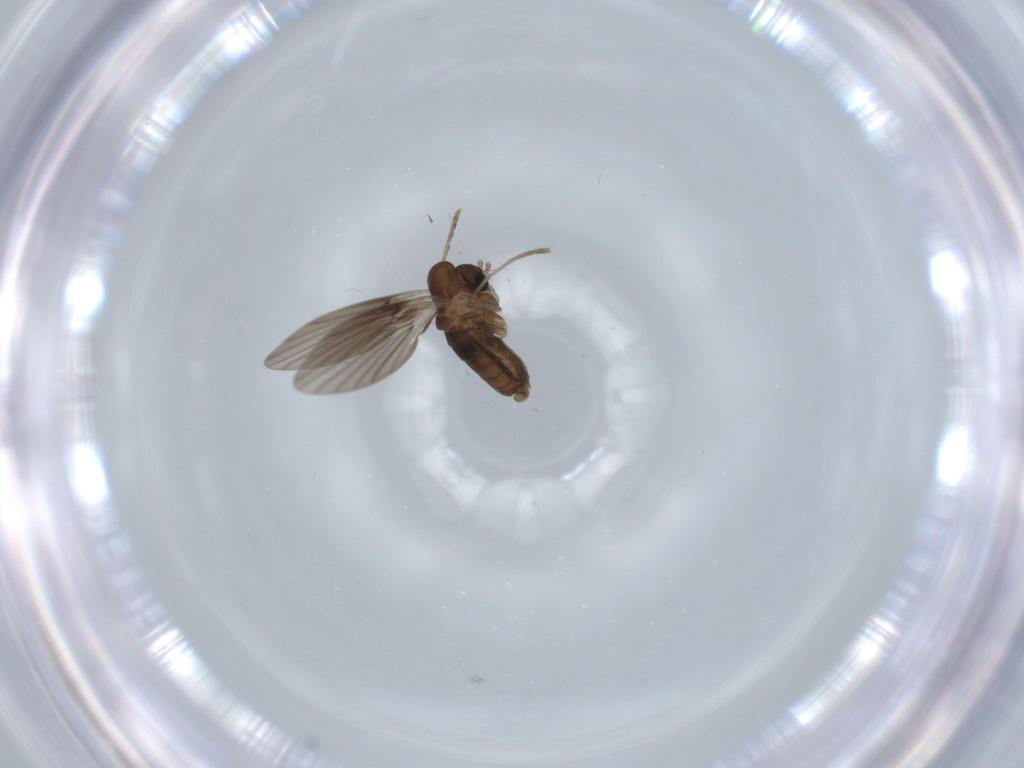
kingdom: Animalia
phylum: Arthropoda
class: Insecta
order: Diptera
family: Psychodidae
